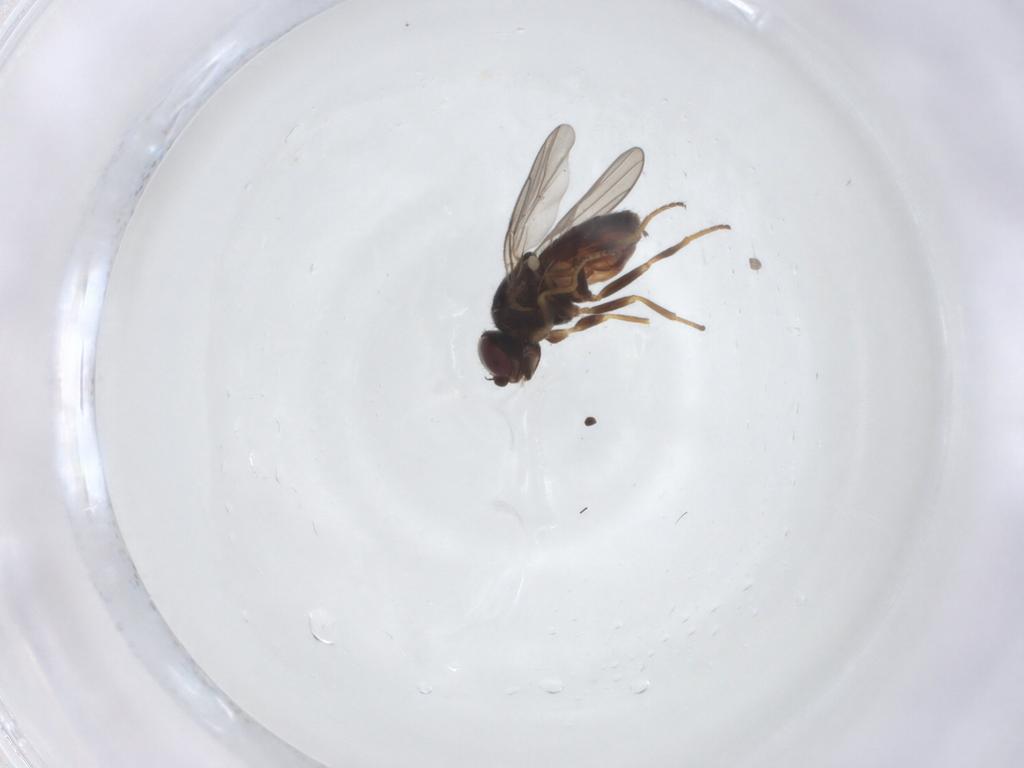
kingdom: Animalia
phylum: Arthropoda
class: Insecta
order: Diptera
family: Chloropidae
